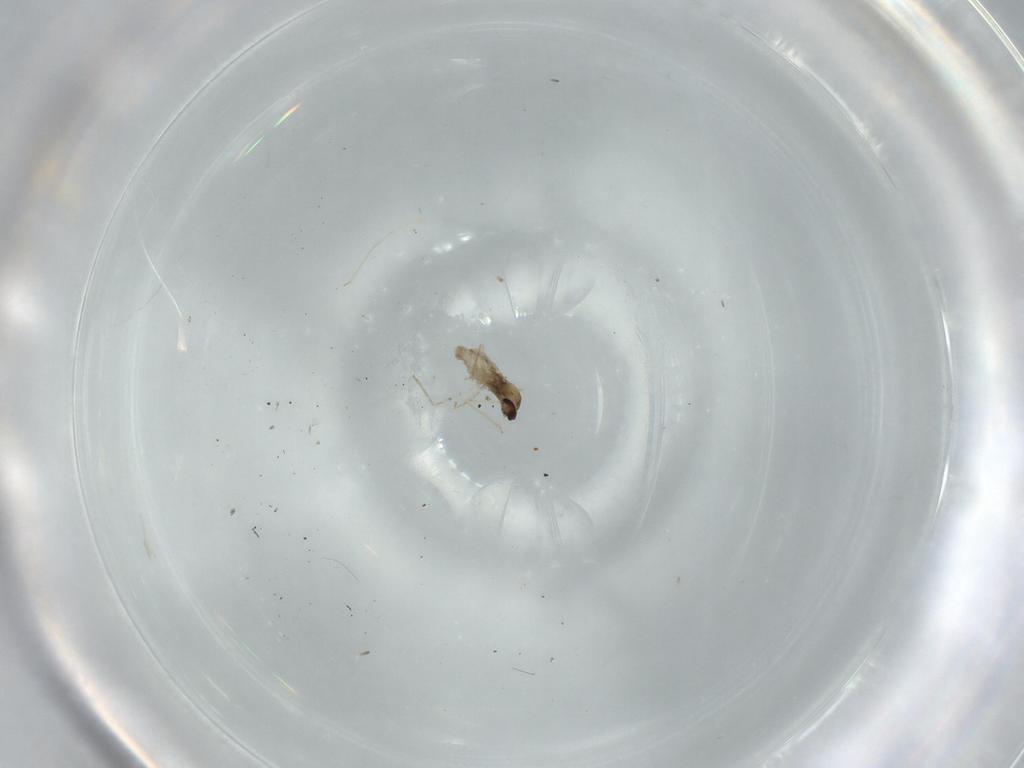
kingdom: Animalia
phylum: Arthropoda
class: Insecta
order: Diptera
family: Cecidomyiidae
